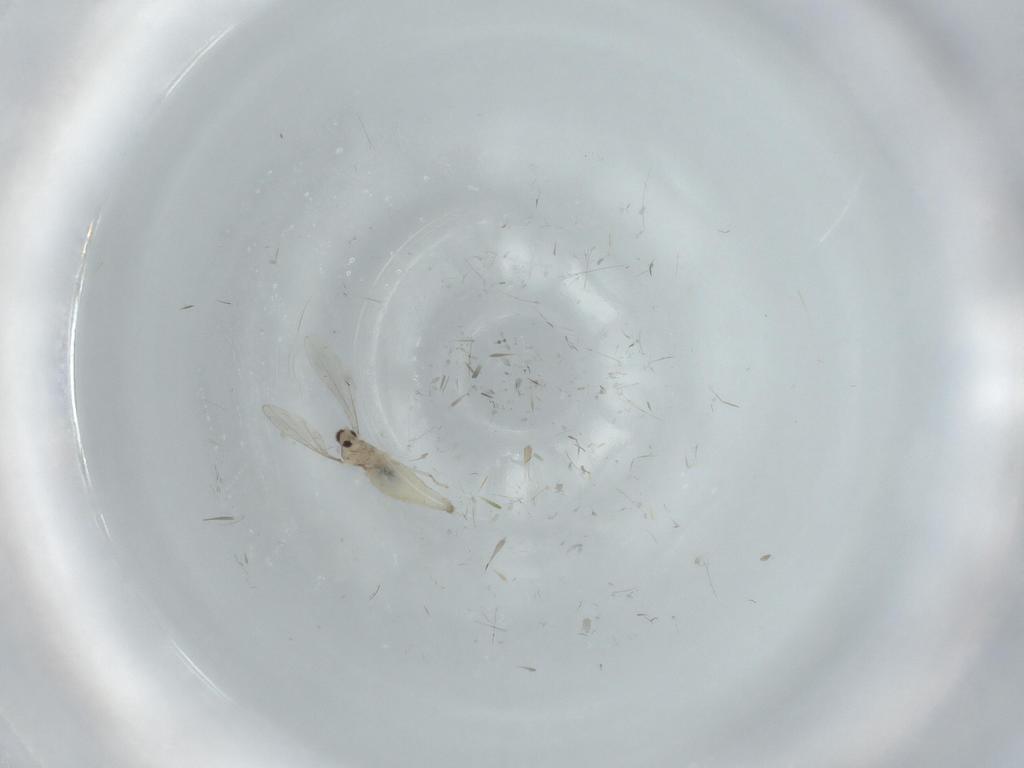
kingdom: Animalia
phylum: Arthropoda
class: Insecta
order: Diptera
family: Cecidomyiidae
